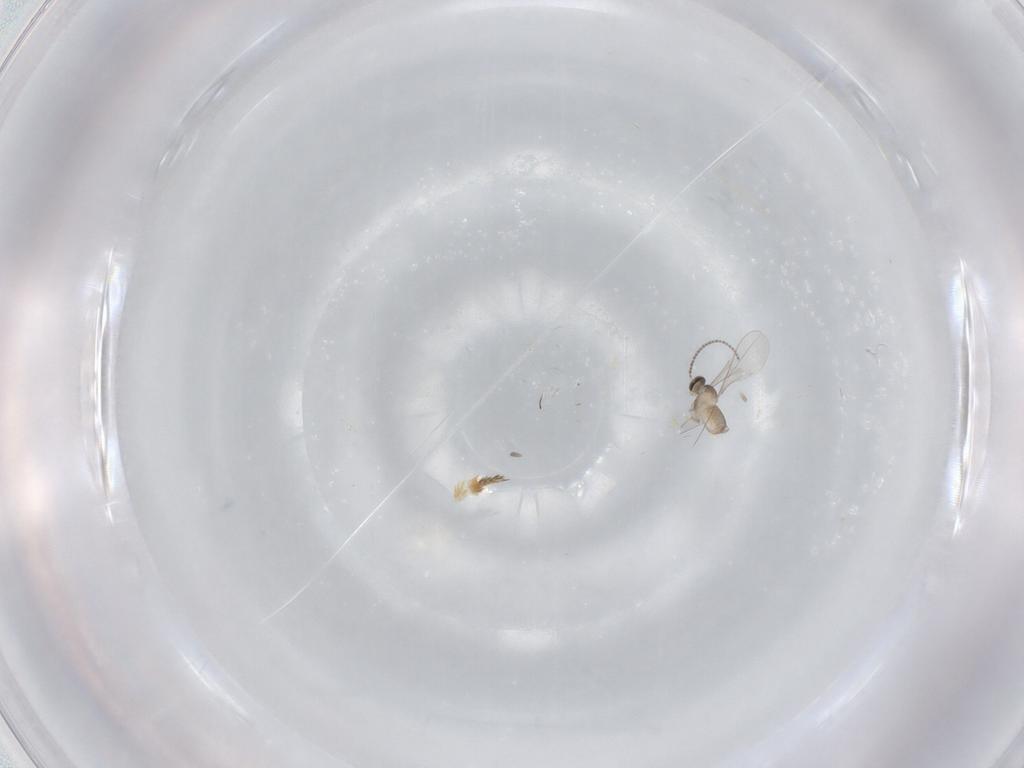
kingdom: Animalia
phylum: Arthropoda
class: Insecta
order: Diptera
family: Cecidomyiidae
